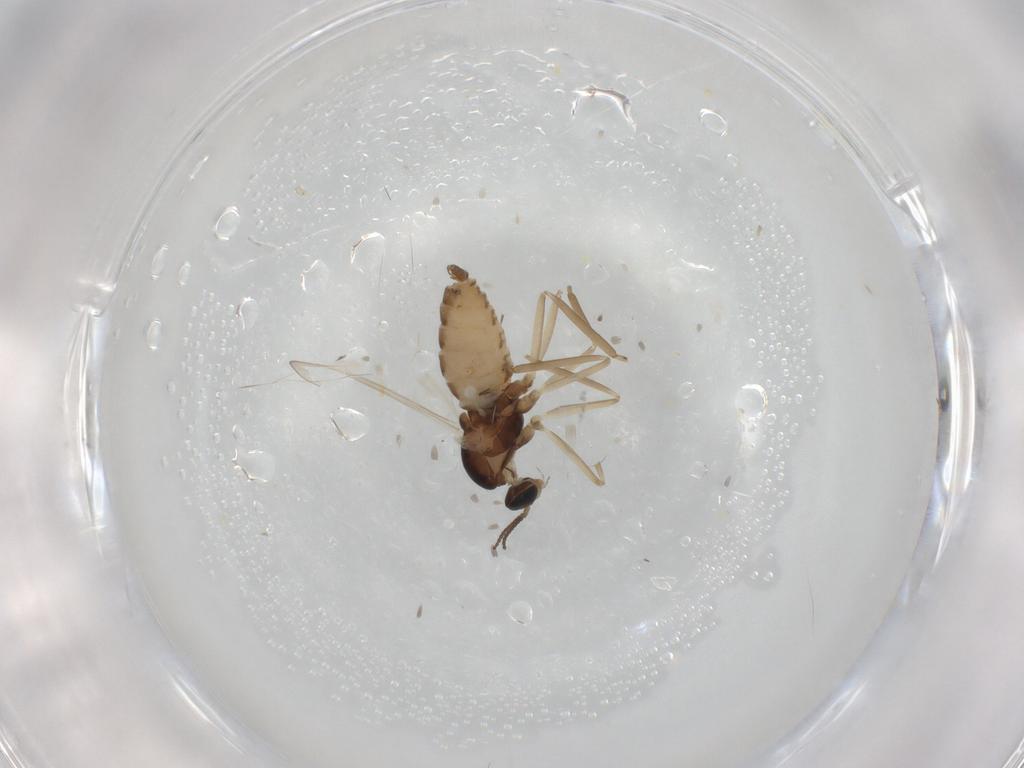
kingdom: Animalia
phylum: Arthropoda
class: Insecta
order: Diptera
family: Cecidomyiidae
